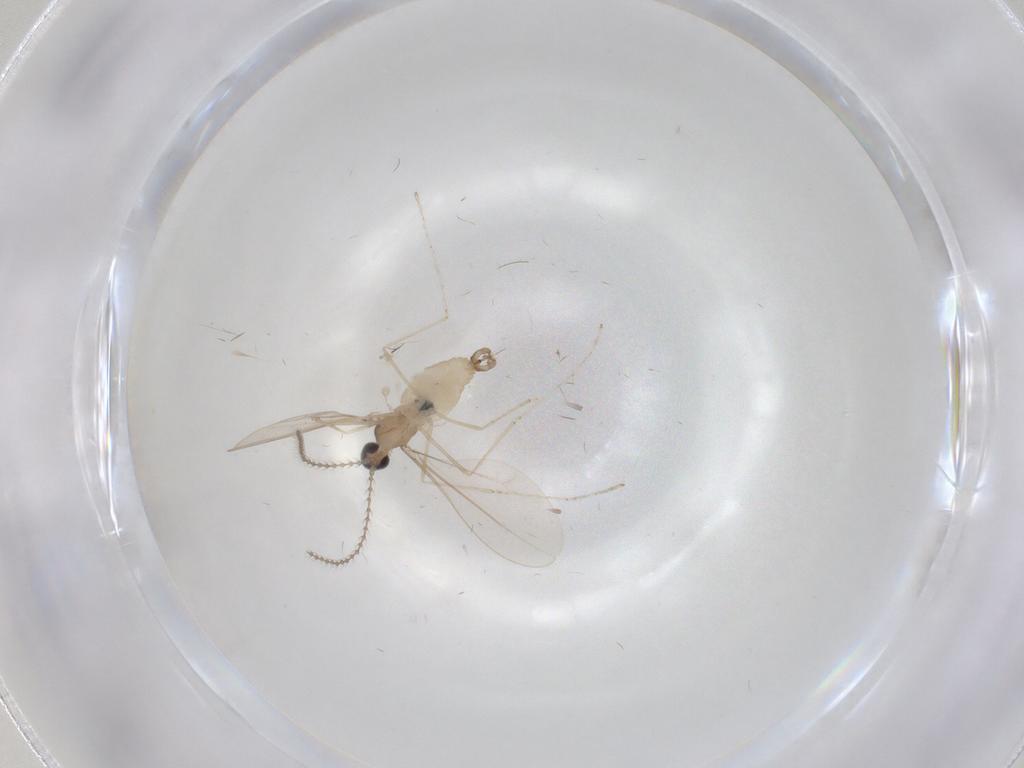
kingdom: Animalia
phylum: Arthropoda
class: Insecta
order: Diptera
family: Cecidomyiidae
